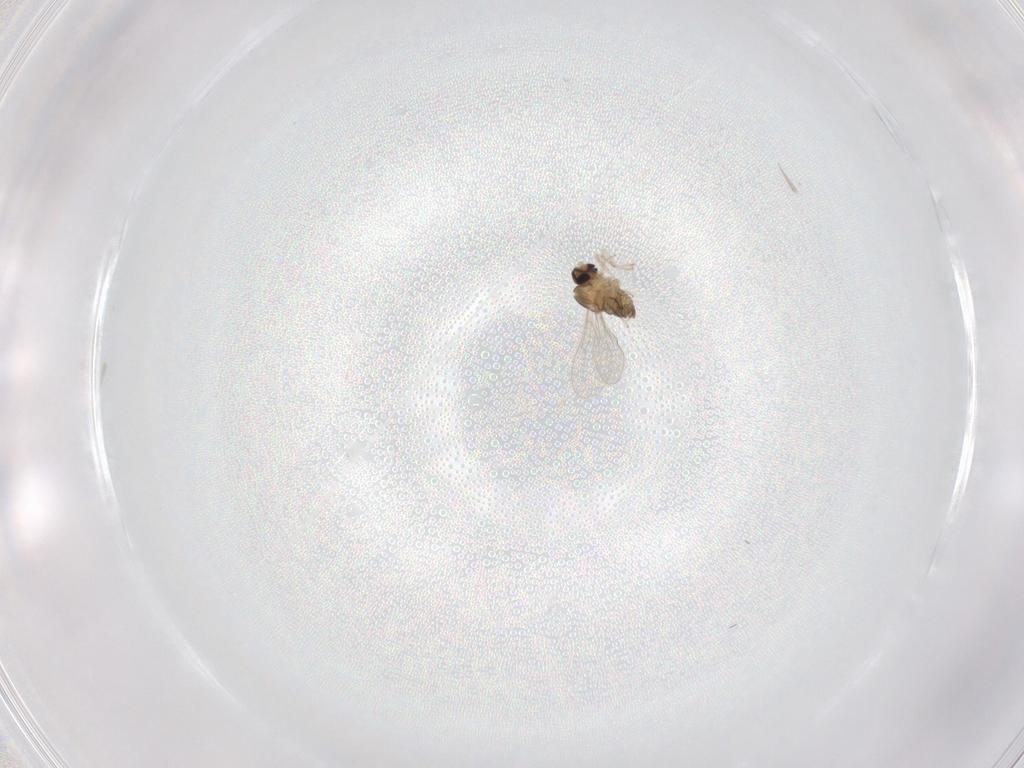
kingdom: Animalia
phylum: Arthropoda
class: Insecta
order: Diptera
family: Cecidomyiidae
